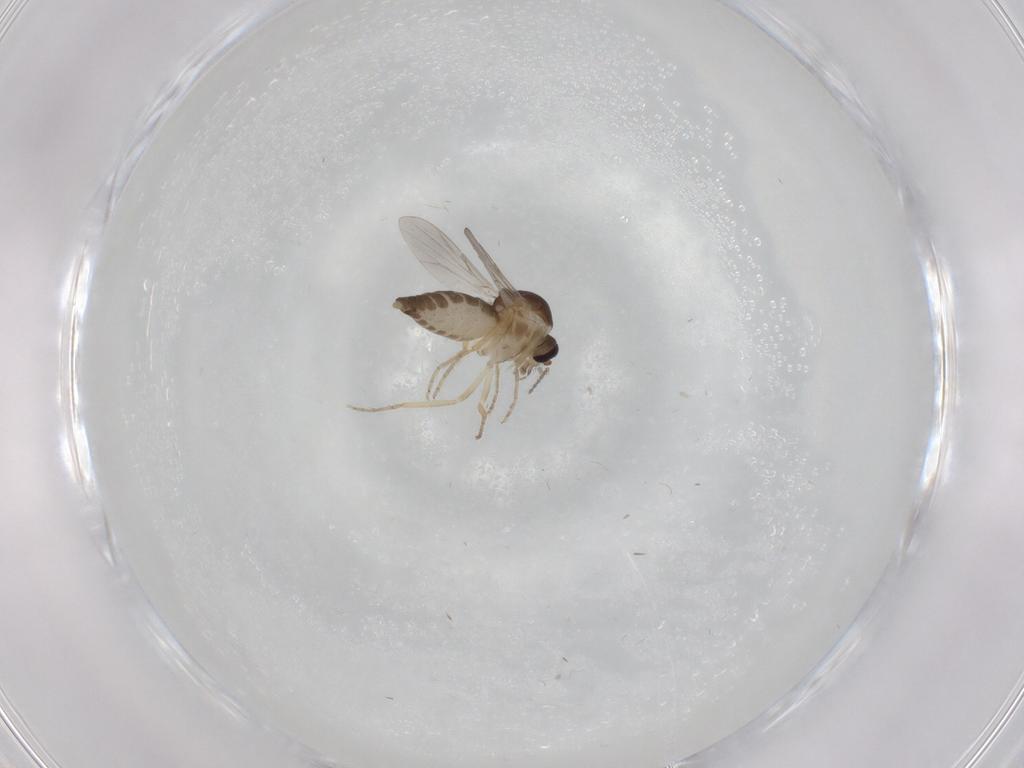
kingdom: Animalia
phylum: Arthropoda
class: Insecta
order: Diptera
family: Ceratopogonidae
